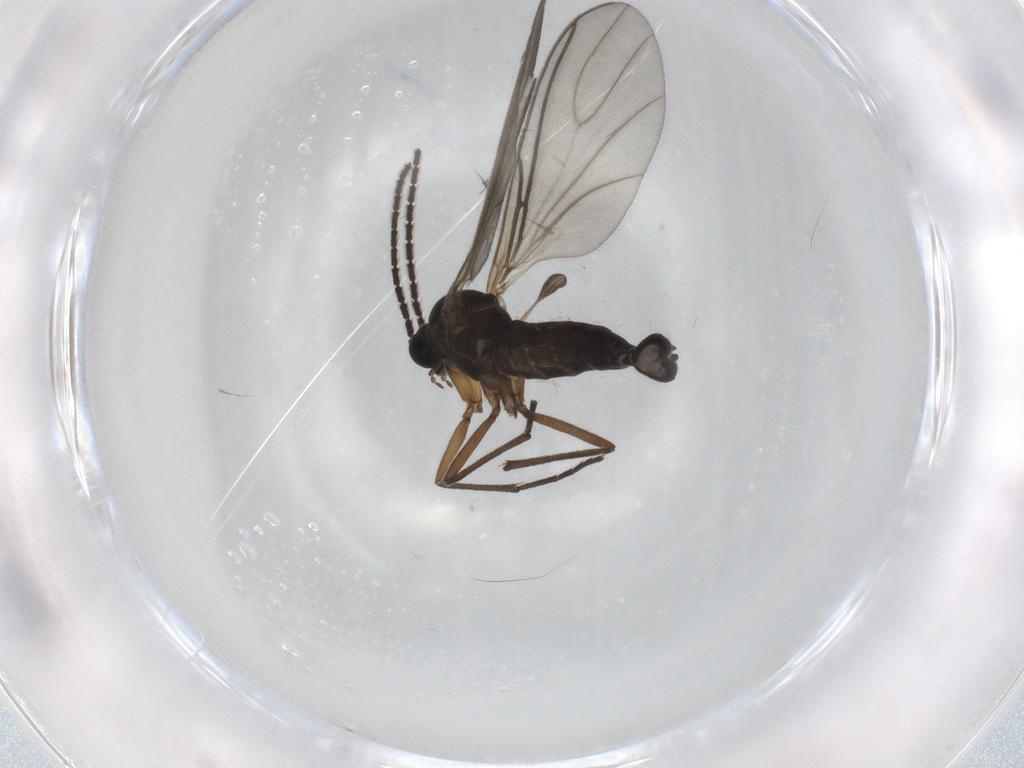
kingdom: Animalia
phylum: Arthropoda
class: Insecta
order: Diptera
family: Sciaridae
